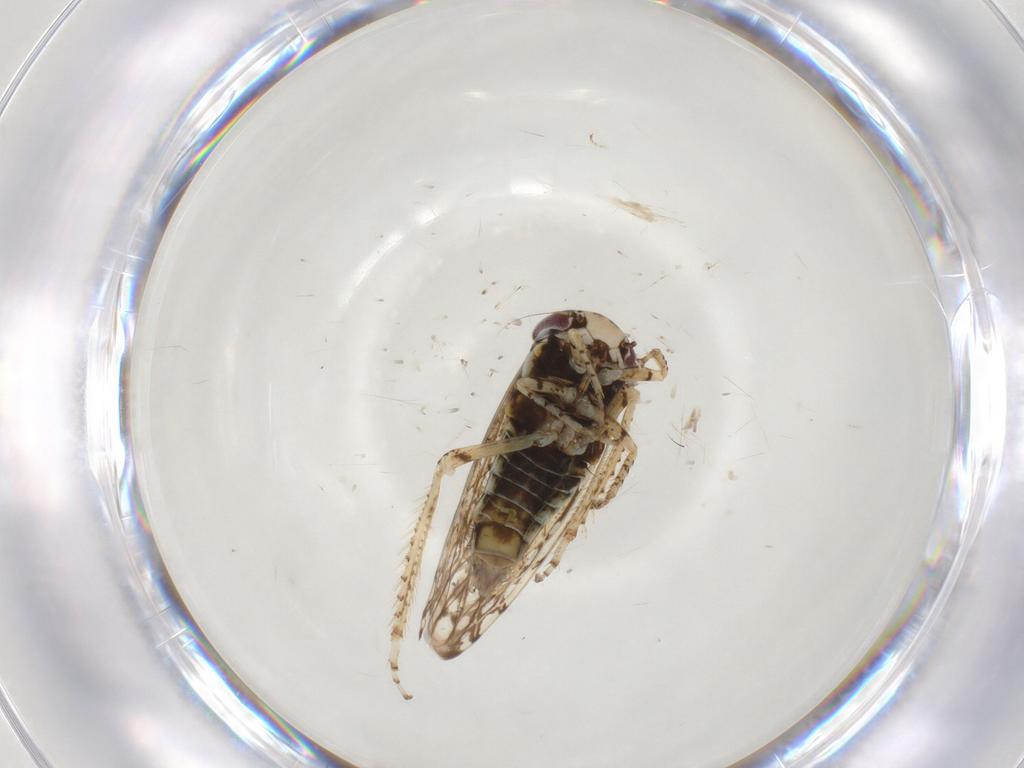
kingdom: Animalia
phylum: Arthropoda
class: Insecta
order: Hemiptera
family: Cicadellidae
